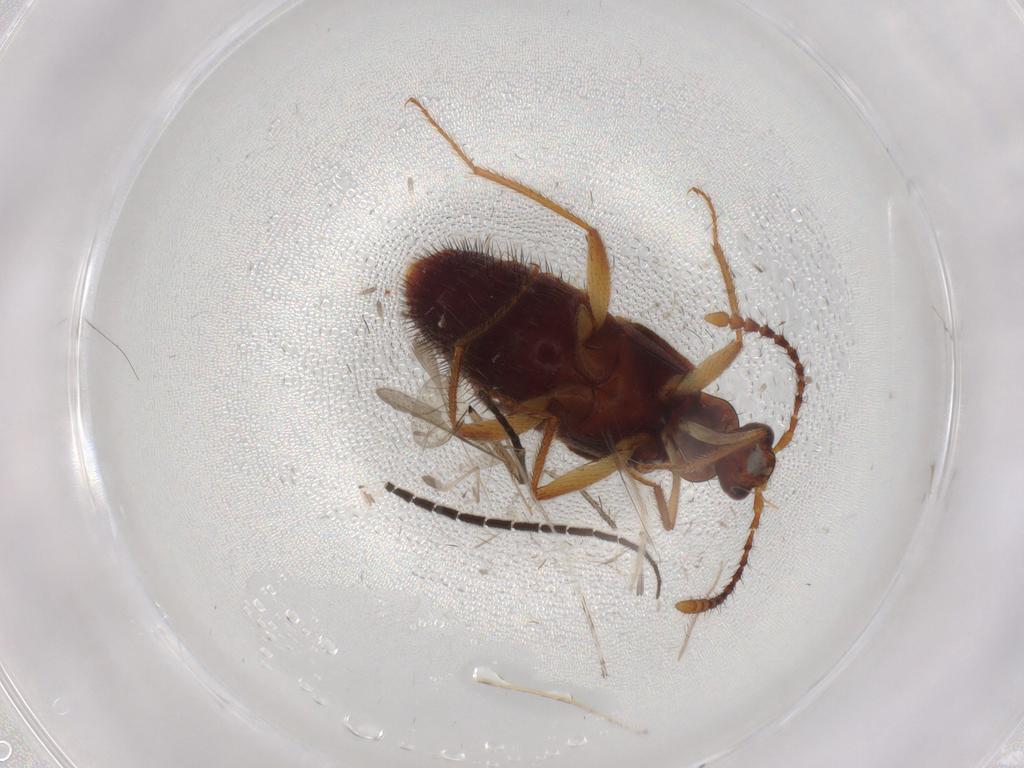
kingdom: Animalia
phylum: Arthropoda
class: Insecta
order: Coleoptera
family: Staphylinidae
